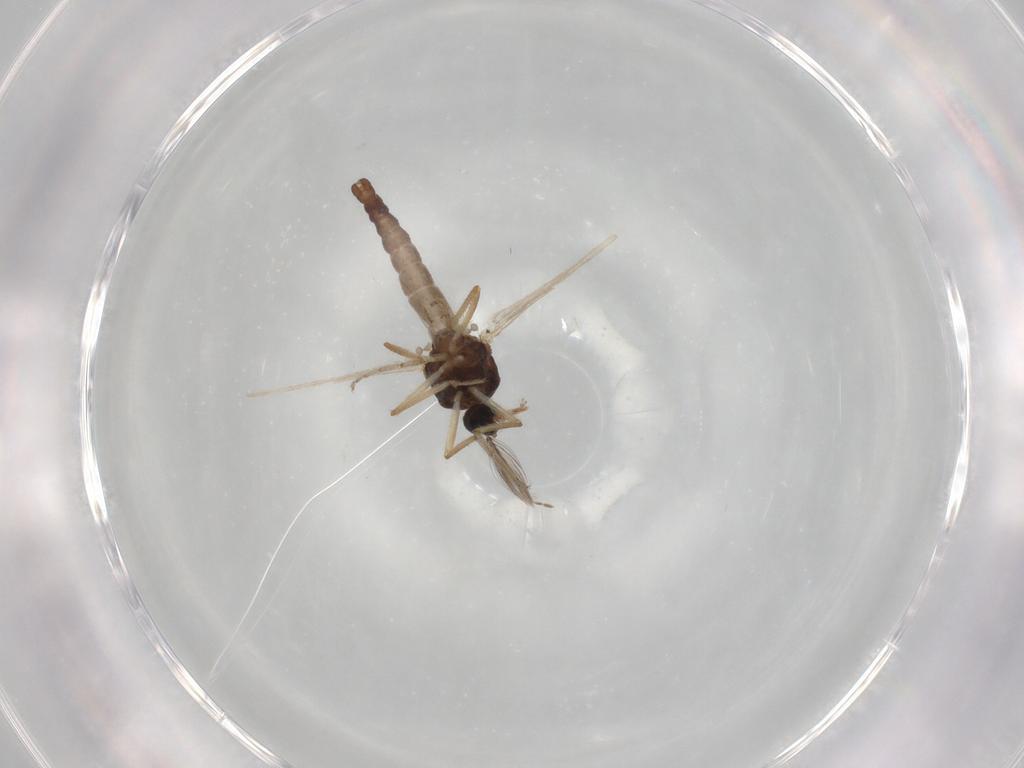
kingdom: Animalia
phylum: Arthropoda
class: Insecta
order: Diptera
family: Ceratopogonidae
